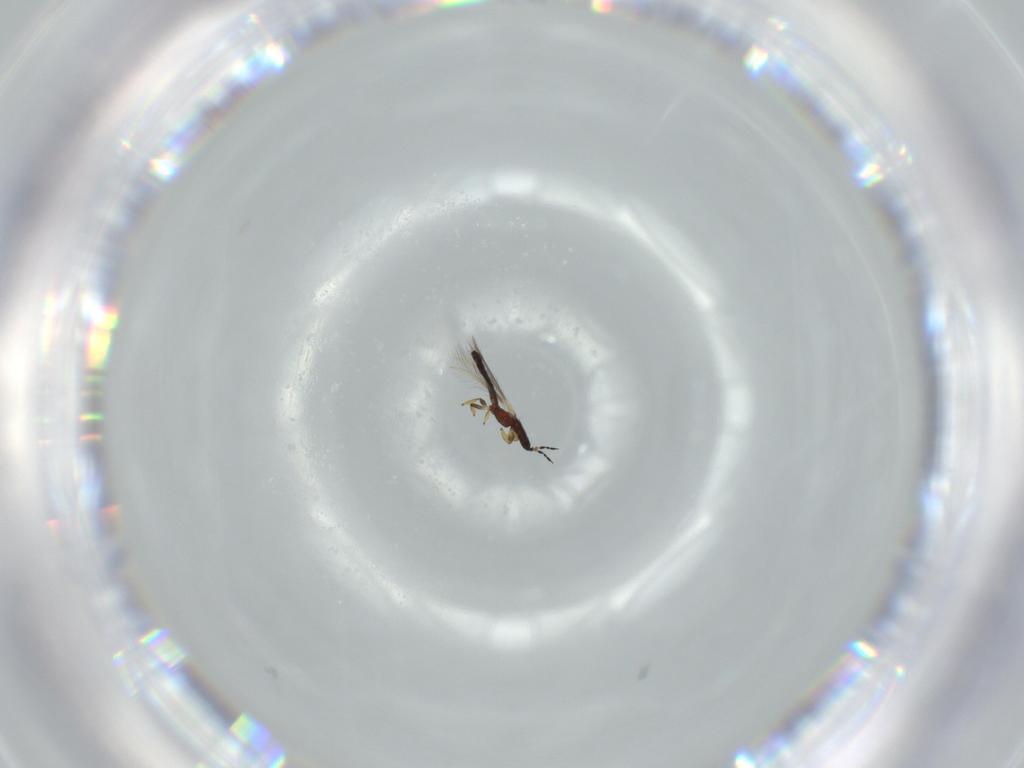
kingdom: Animalia
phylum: Arthropoda
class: Insecta
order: Thysanoptera
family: Thripidae
